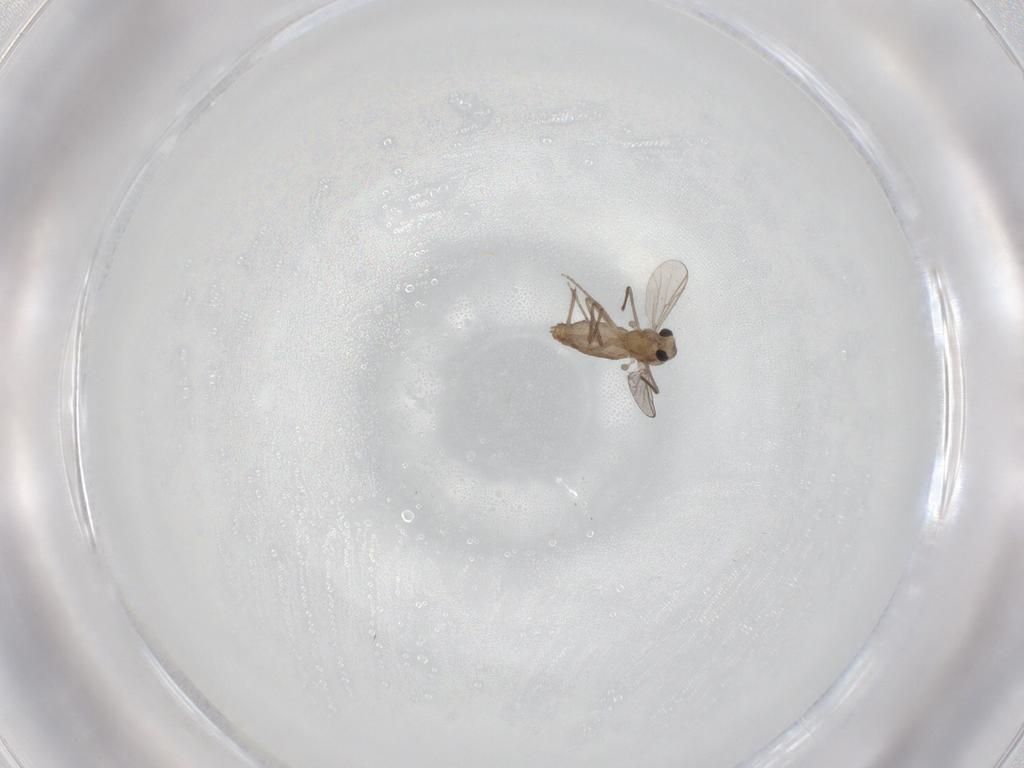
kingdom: Animalia
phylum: Arthropoda
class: Insecta
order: Diptera
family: Chironomidae
